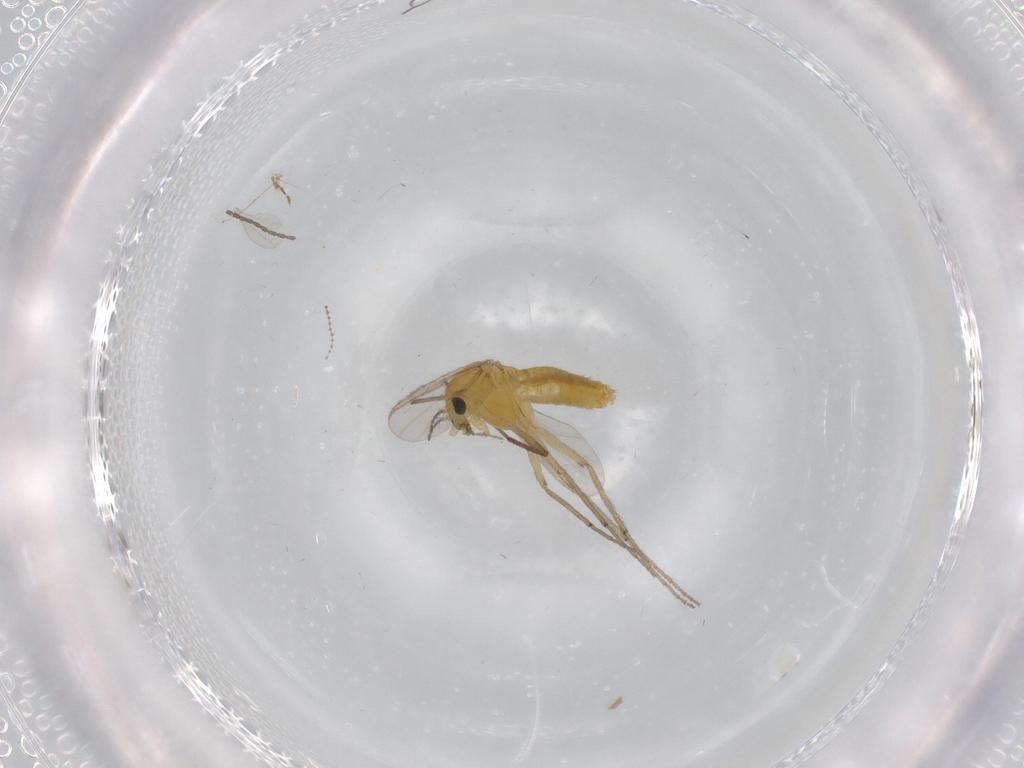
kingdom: Animalia
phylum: Arthropoda
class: Insecta
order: Diptera
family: Chironomidae
